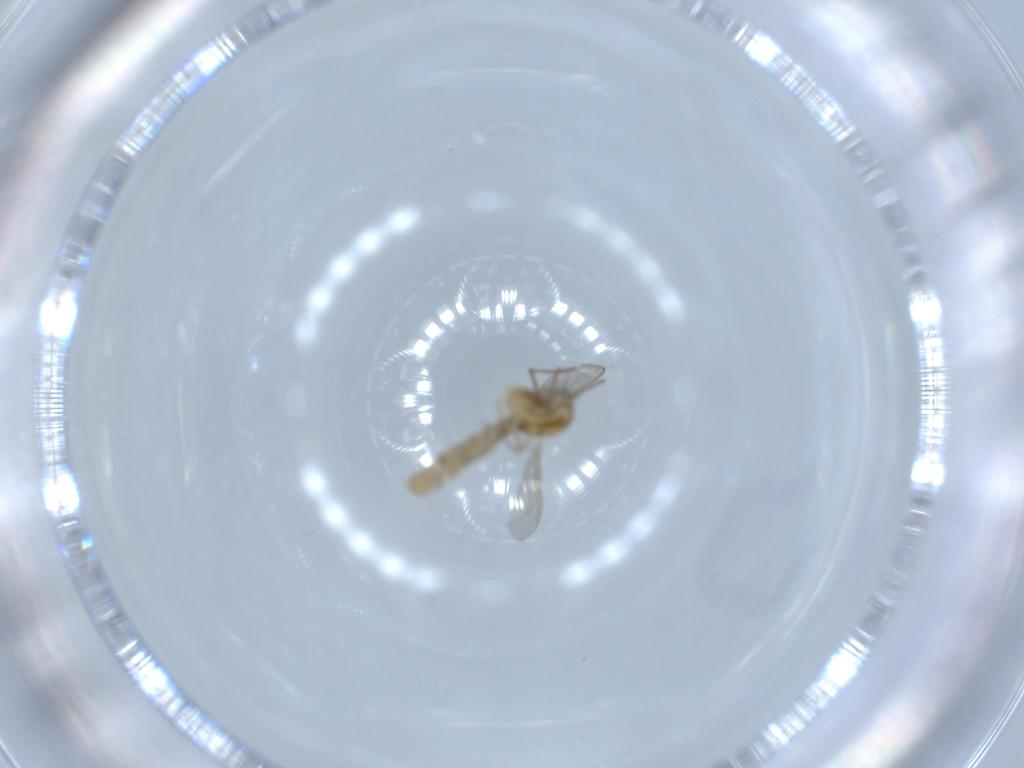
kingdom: Animalia
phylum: Arthropoda
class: Insecta
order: Diptera
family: Chironomidae
